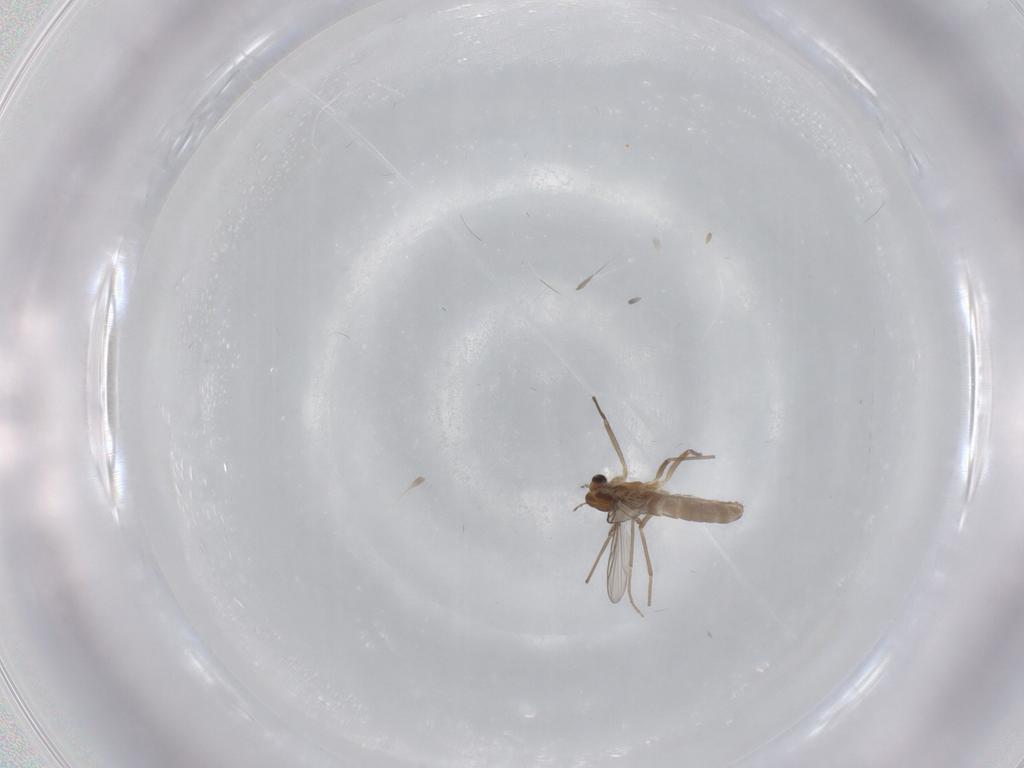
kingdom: Animalia
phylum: Arthropoda
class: Insecta
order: Diptera
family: Chironomidae
